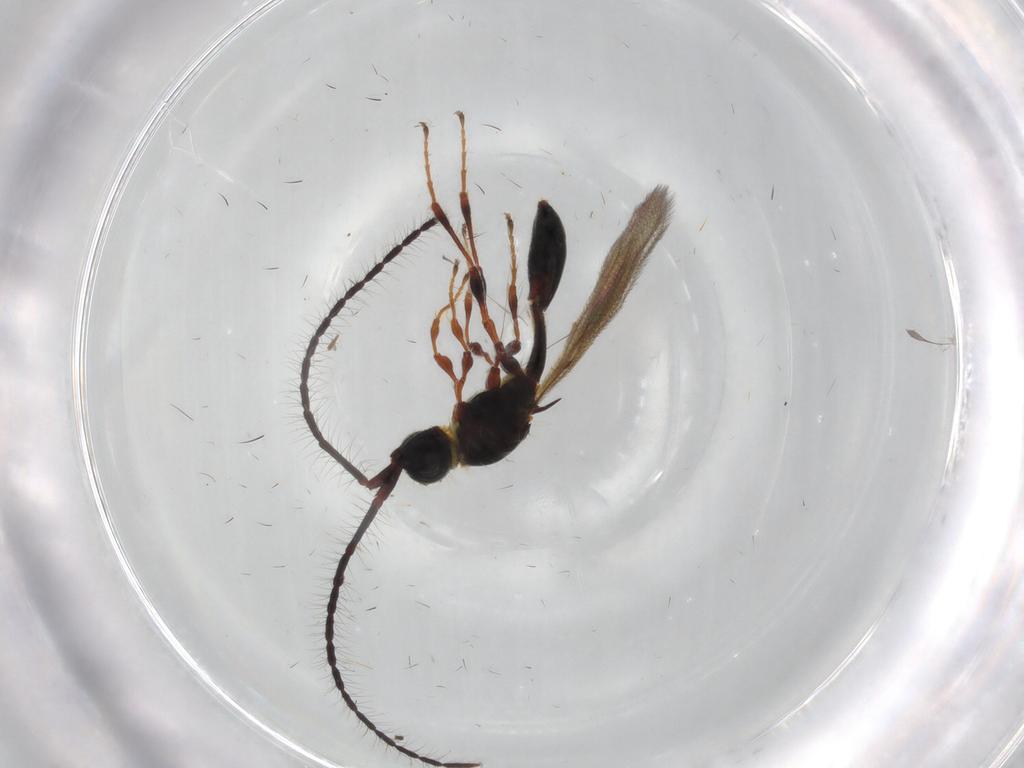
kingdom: Animalia
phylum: Arthropoda
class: Insecta
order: Hymenoptera
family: Diapriidae
